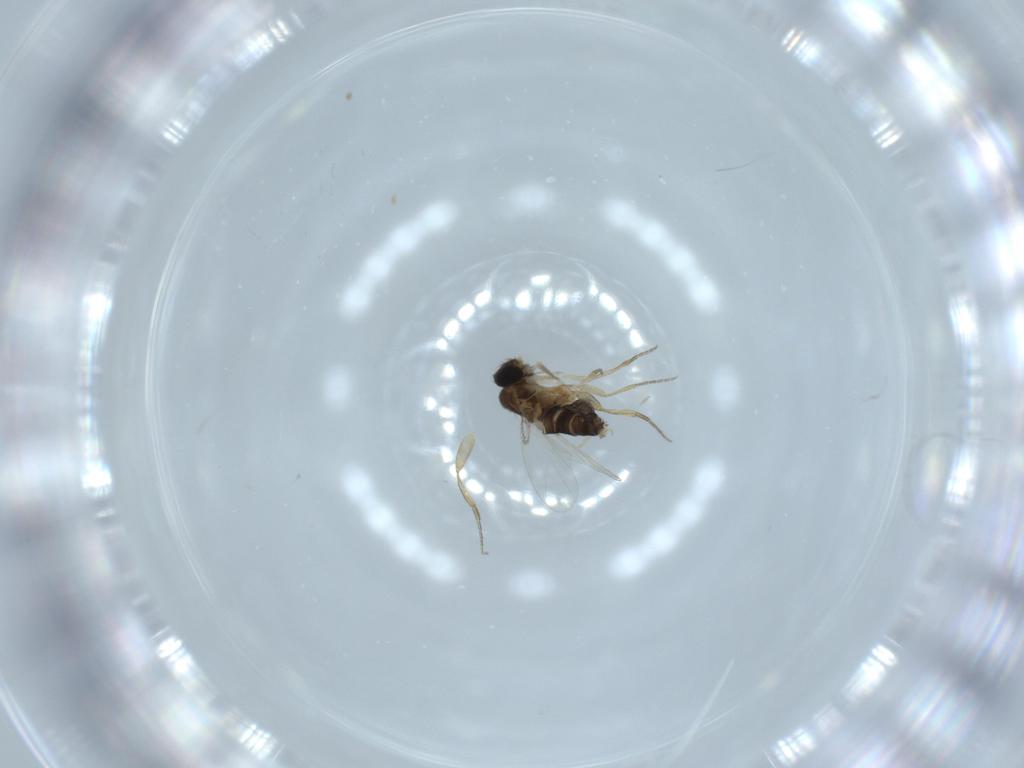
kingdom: Animalia
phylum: Arthropoda
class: Insecta
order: Diptera
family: Phoridae
